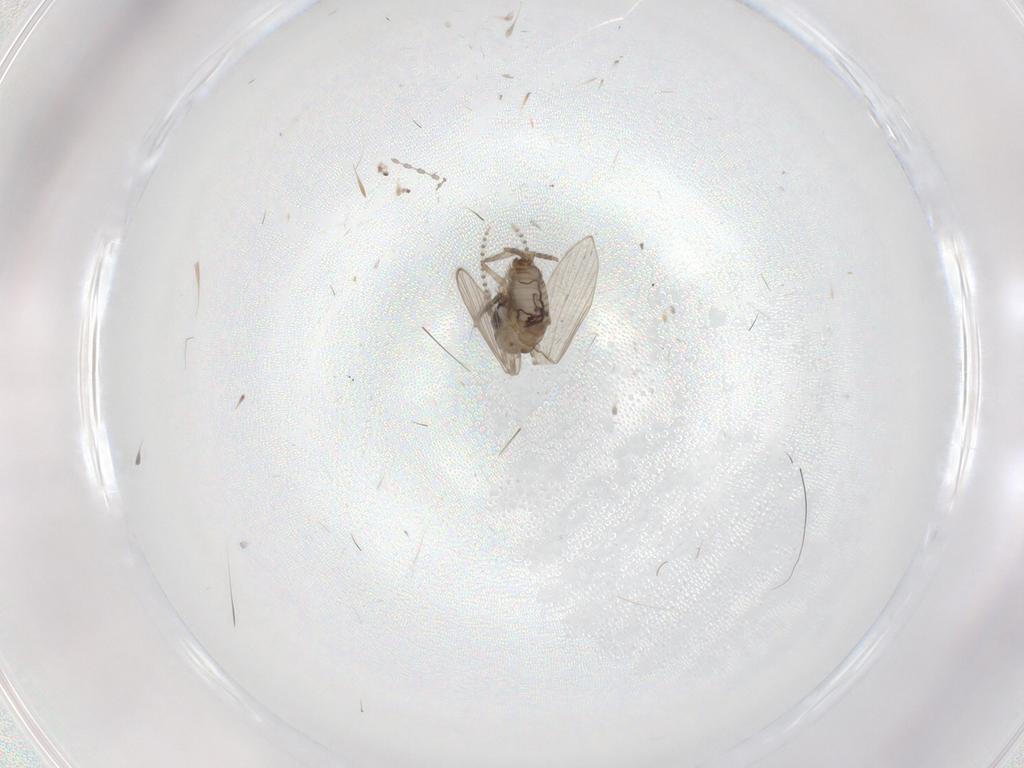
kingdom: Animalia
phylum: Arthropoda
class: Insecta
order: Diptera
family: Psychodidae
